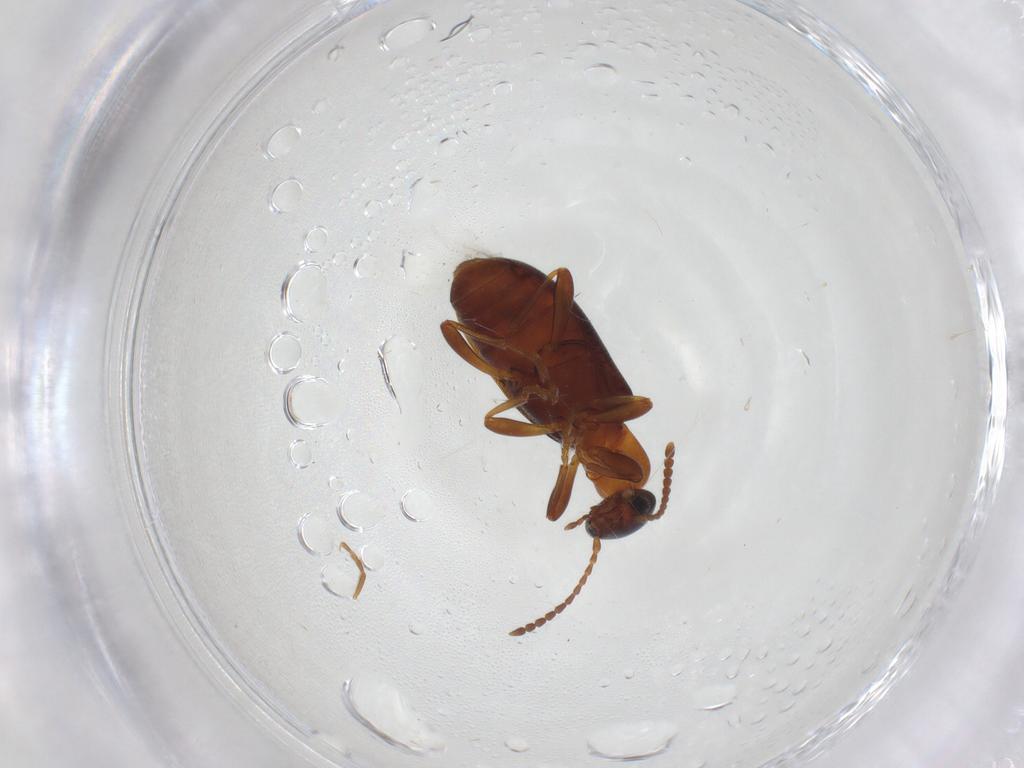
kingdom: Animalia
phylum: Arthropoda
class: Insecta
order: Coleoptera
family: Anthicidae
